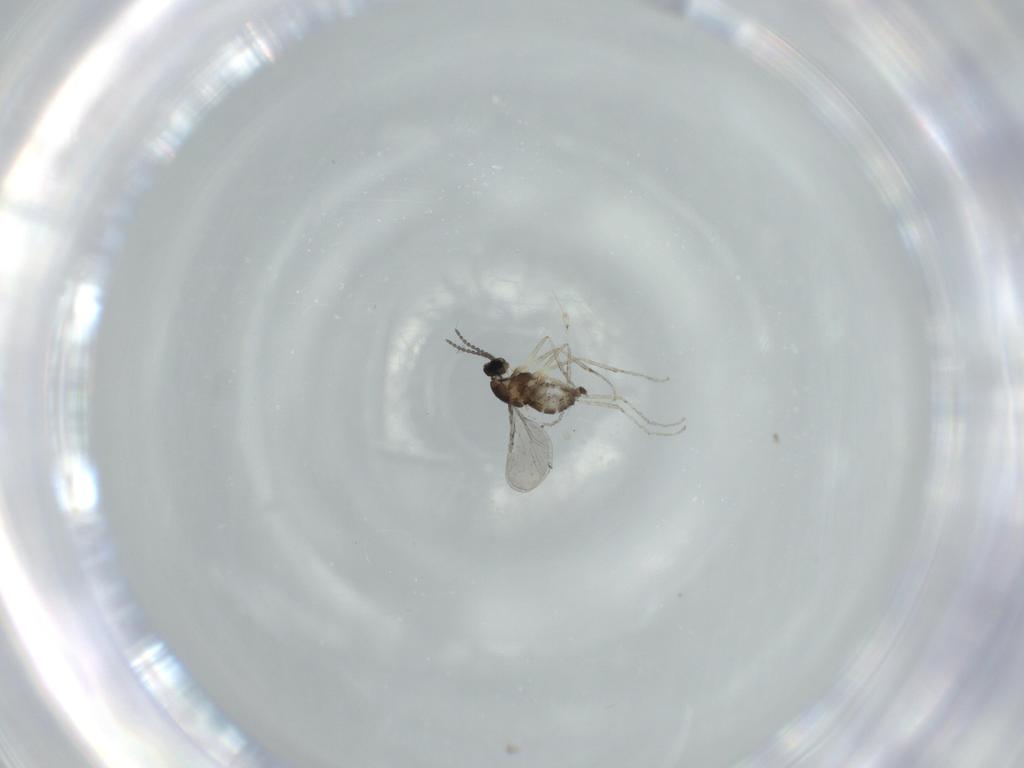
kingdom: Animalia
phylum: Arthropoda
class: Insecta
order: Diptera
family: Cecidomyiidae
